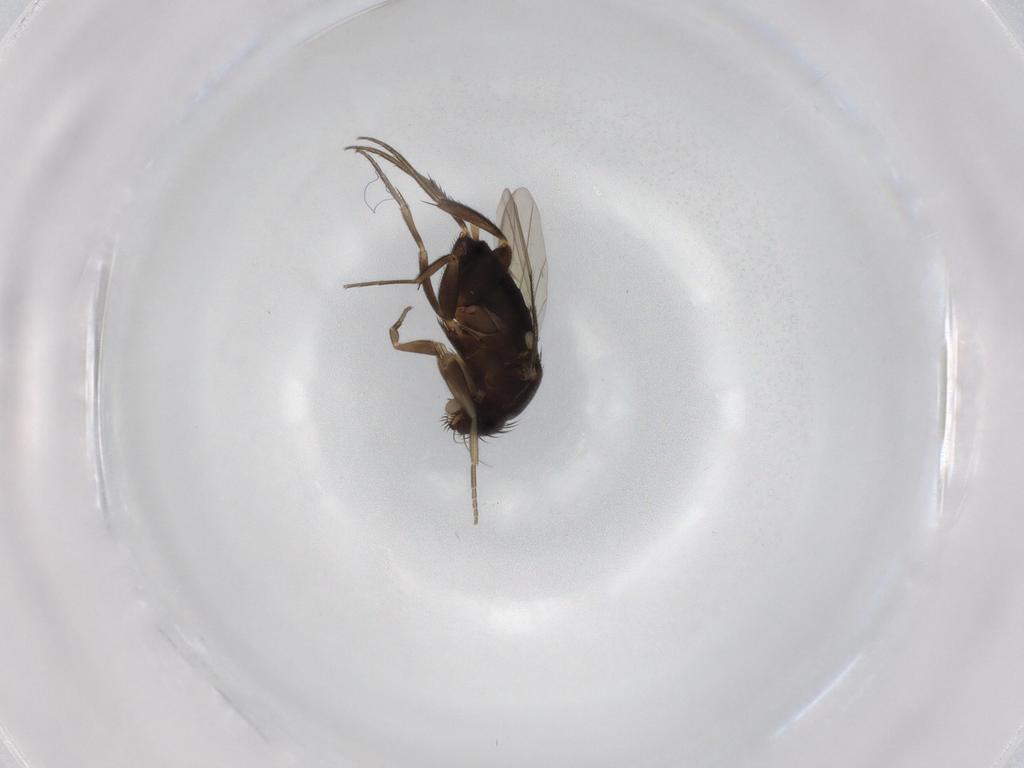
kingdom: Animalia
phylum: Arthropoda
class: Insecta
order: Diptera
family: Phoridae
